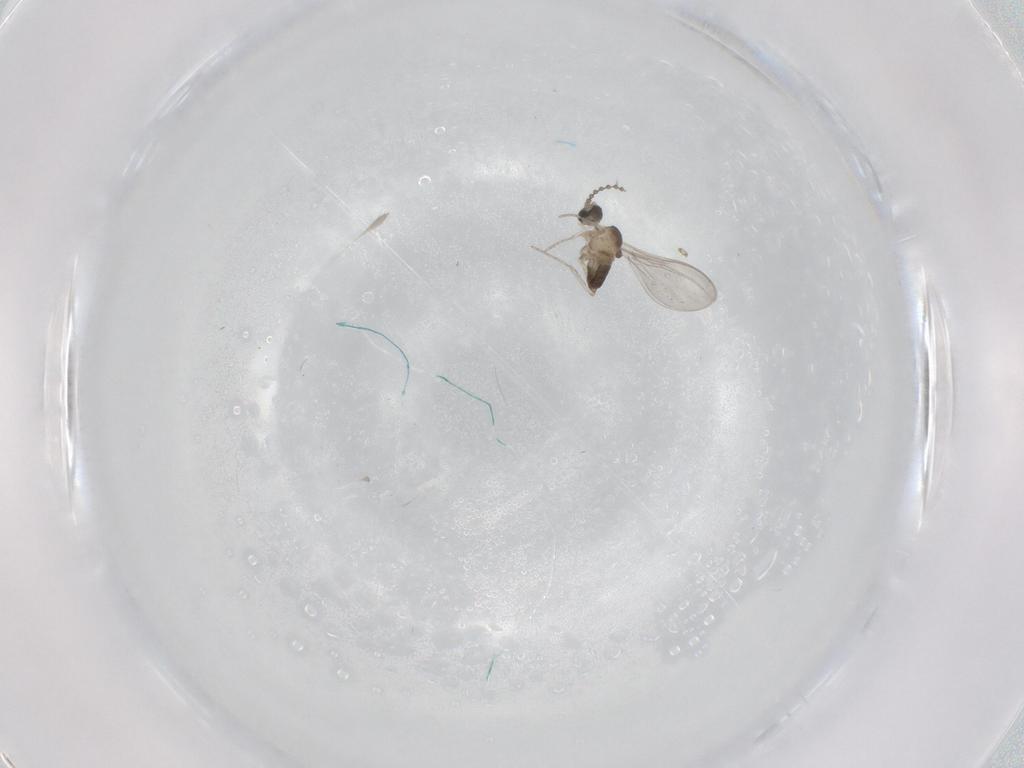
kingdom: Animalia
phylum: Arthropoda
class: Insecta
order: Diptera
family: Cecidomyiidae
